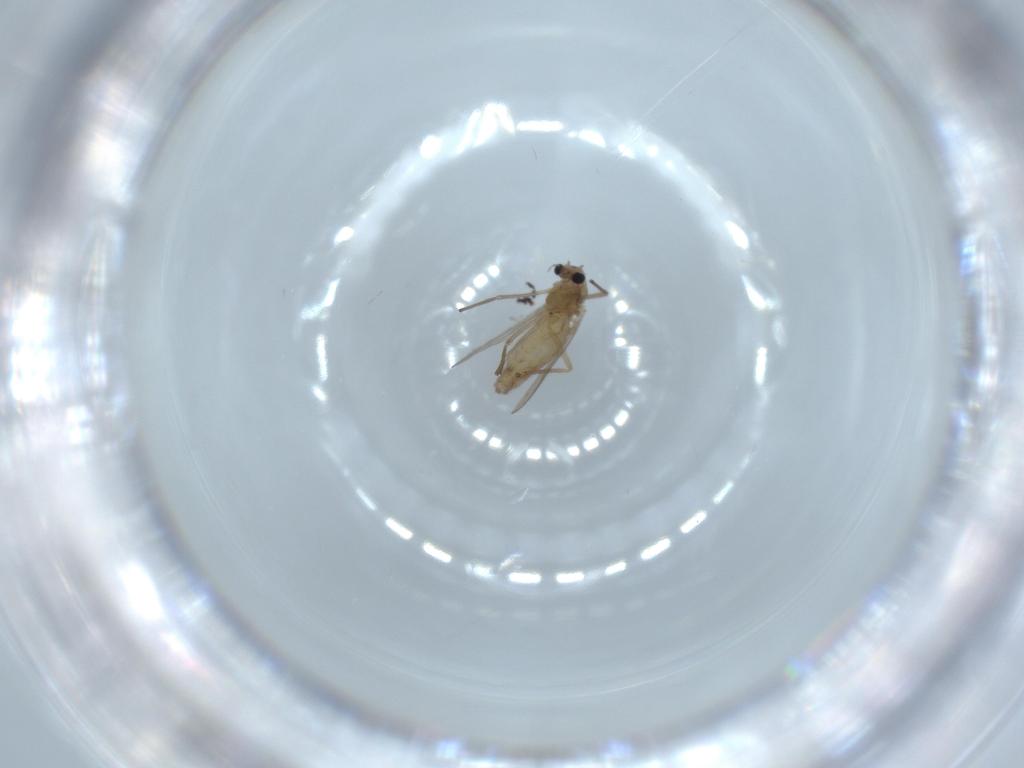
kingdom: Animalia
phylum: Arthropoda
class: Insecta
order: Diptera
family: Chironomidae
